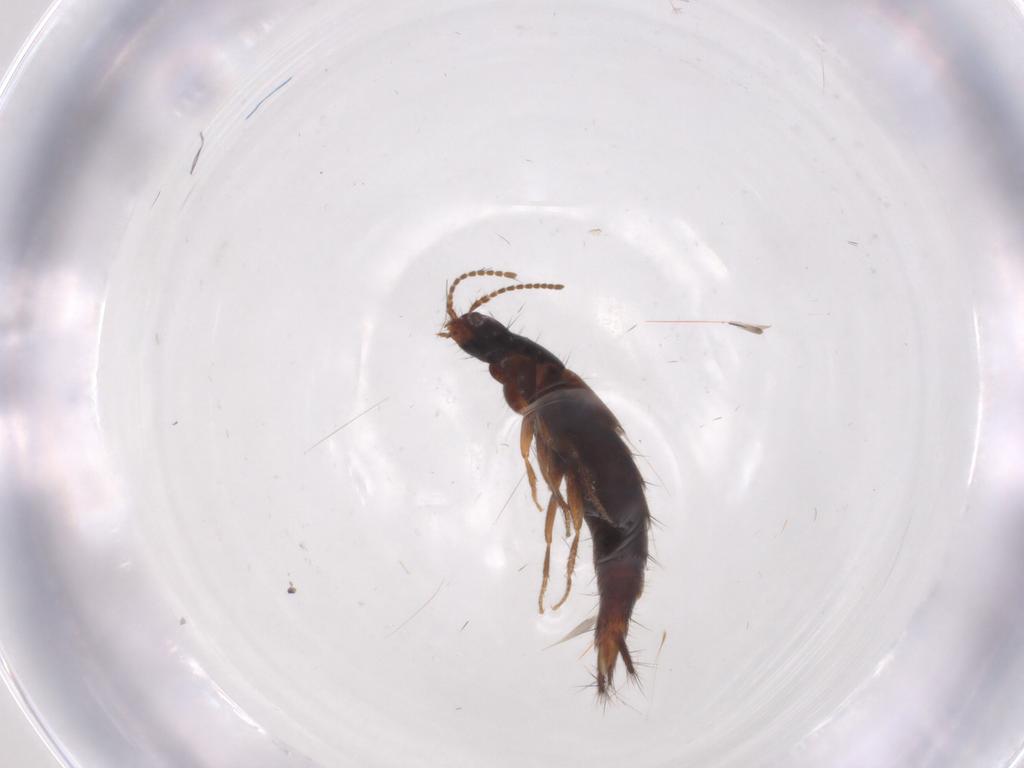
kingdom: Animalia
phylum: Arthropoda
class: Insecta
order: Coleoptera
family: Ptilodactylidae
